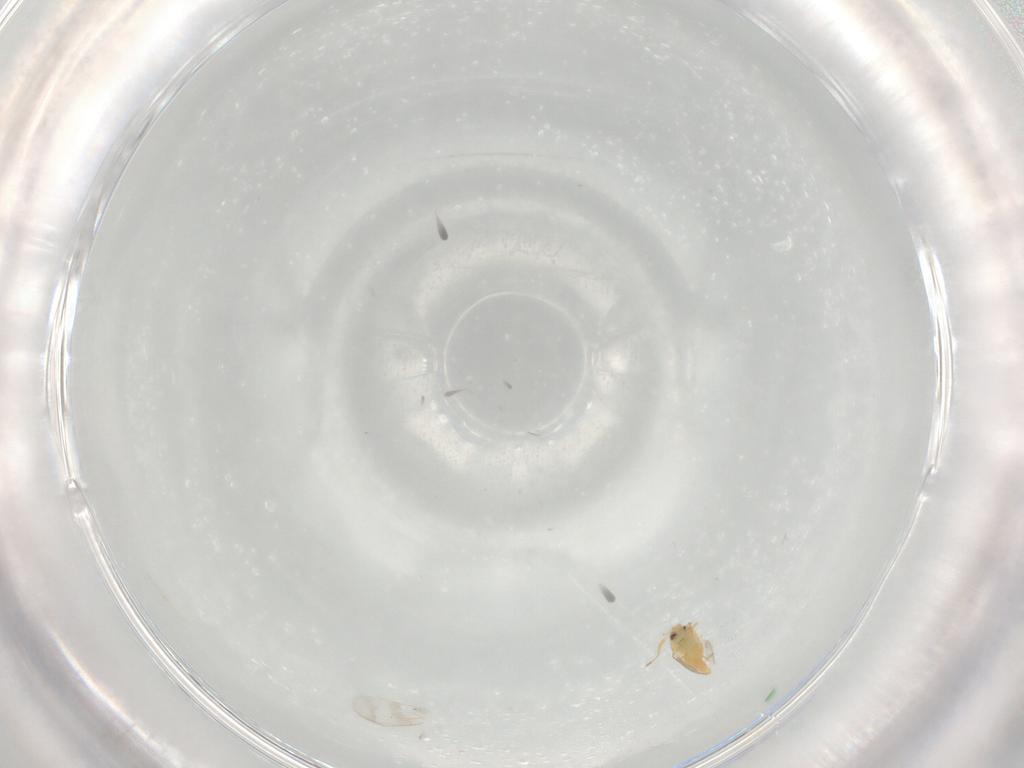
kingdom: Animalia
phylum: Arthropoda
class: Insecta
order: Hemiptera
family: Aleyrodidae
